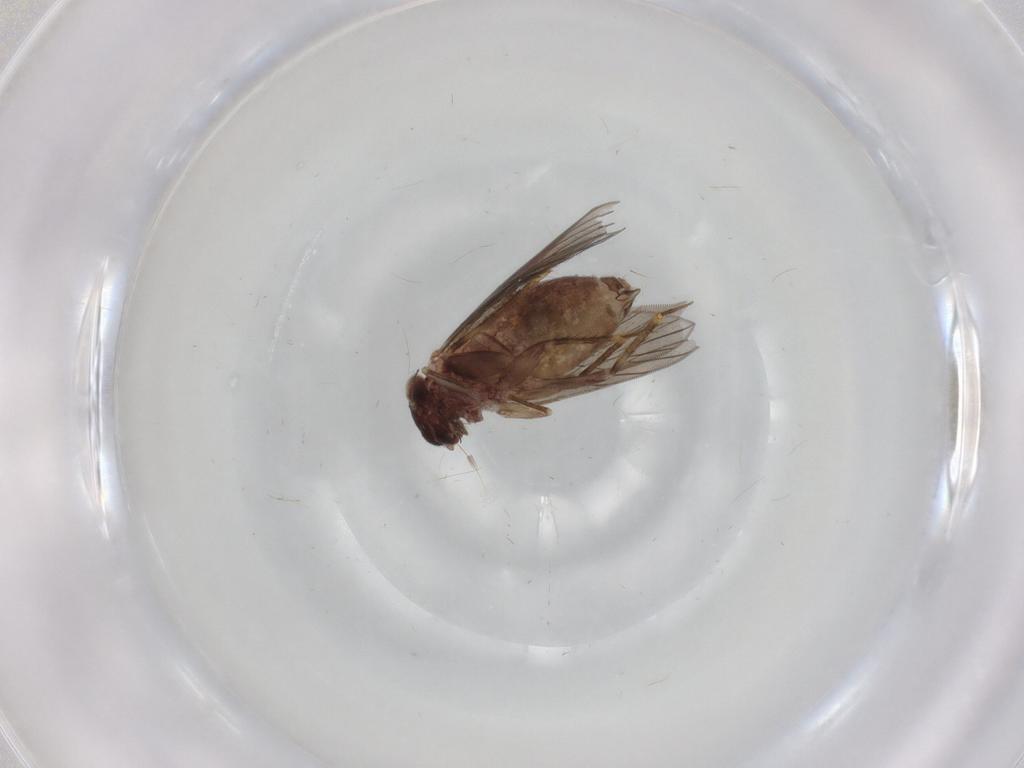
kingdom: Animalia
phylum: Arthropoda
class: Insecta
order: Psocodea
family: Lepidopsocidae
